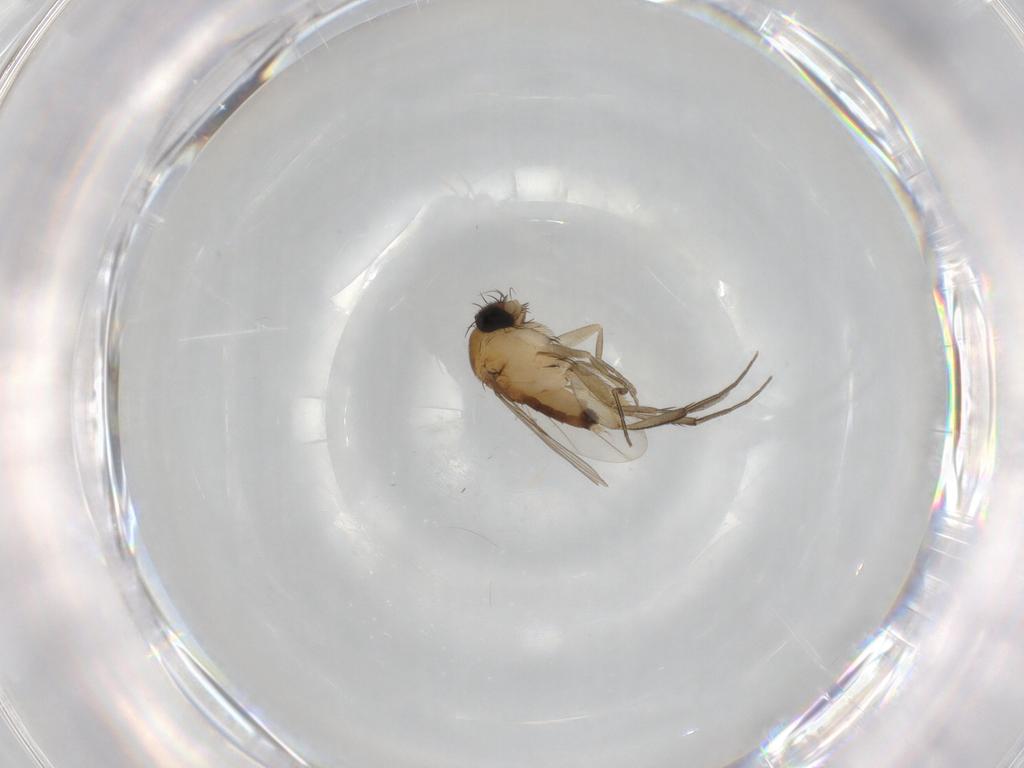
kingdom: Animalia
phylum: Arthropoda
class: Insecta
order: Diptera
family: Phoridae
